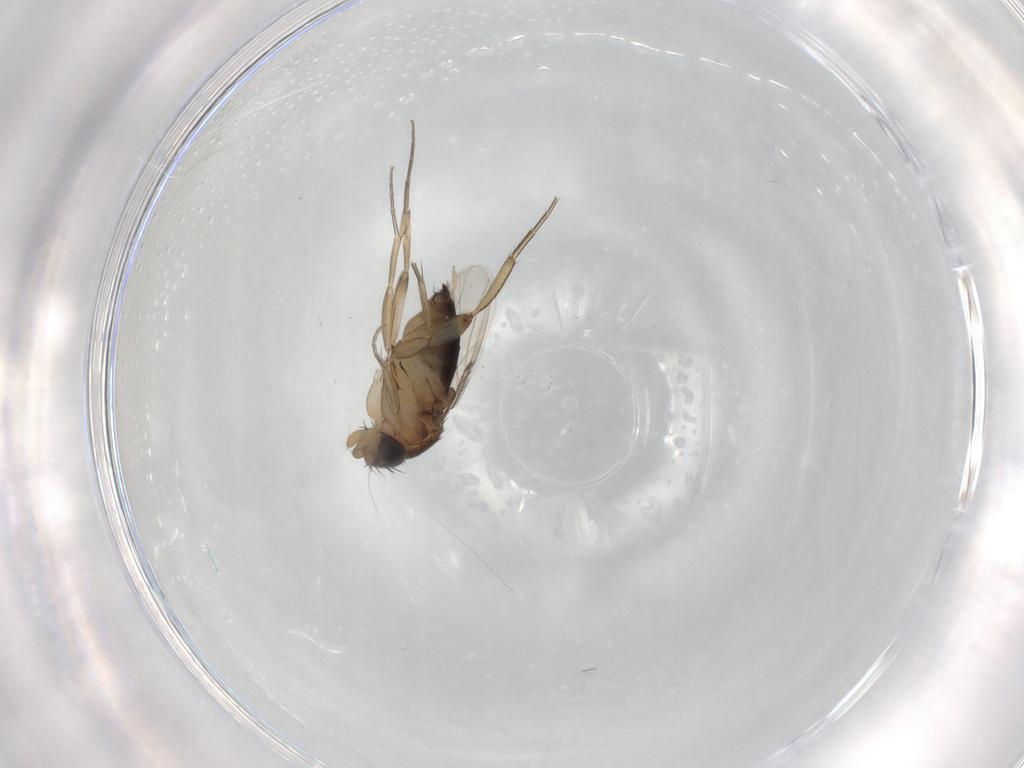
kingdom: Animalia
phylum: Arthropoda
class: Insecta
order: Diptera
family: Phoridae
